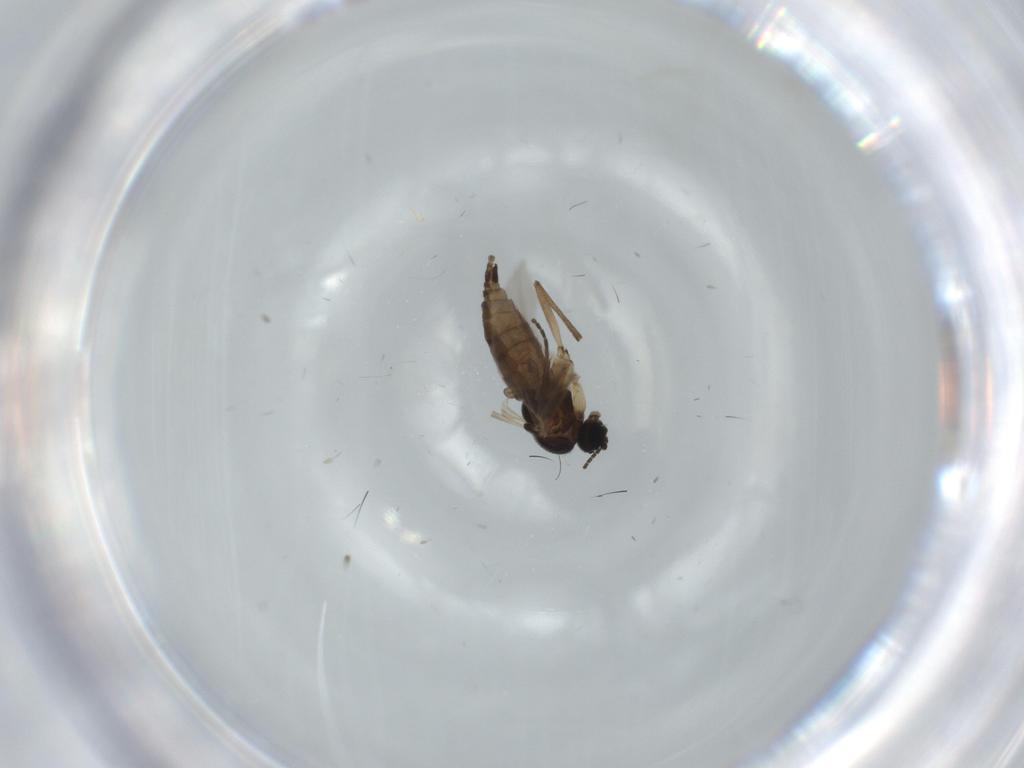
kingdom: Animalia
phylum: Arthropoda
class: Insecta
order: Diptera
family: Sciaridae
